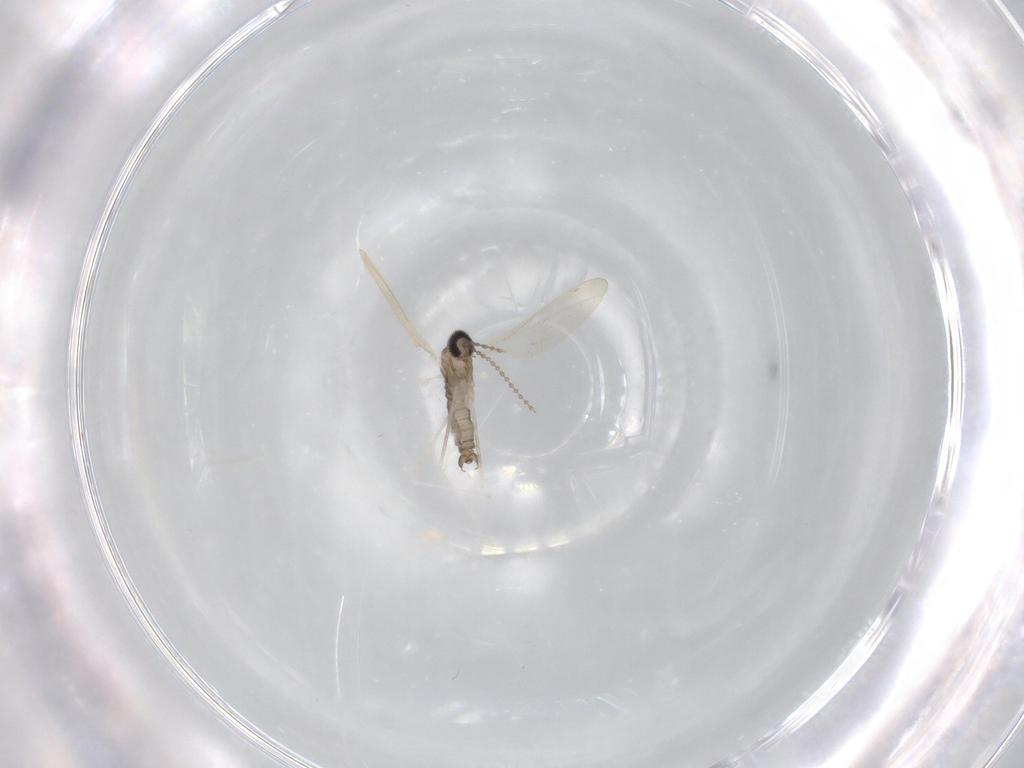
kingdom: Animalia
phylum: Arthropoda
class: Insecta
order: Diptera
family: Cecidomyiidae
